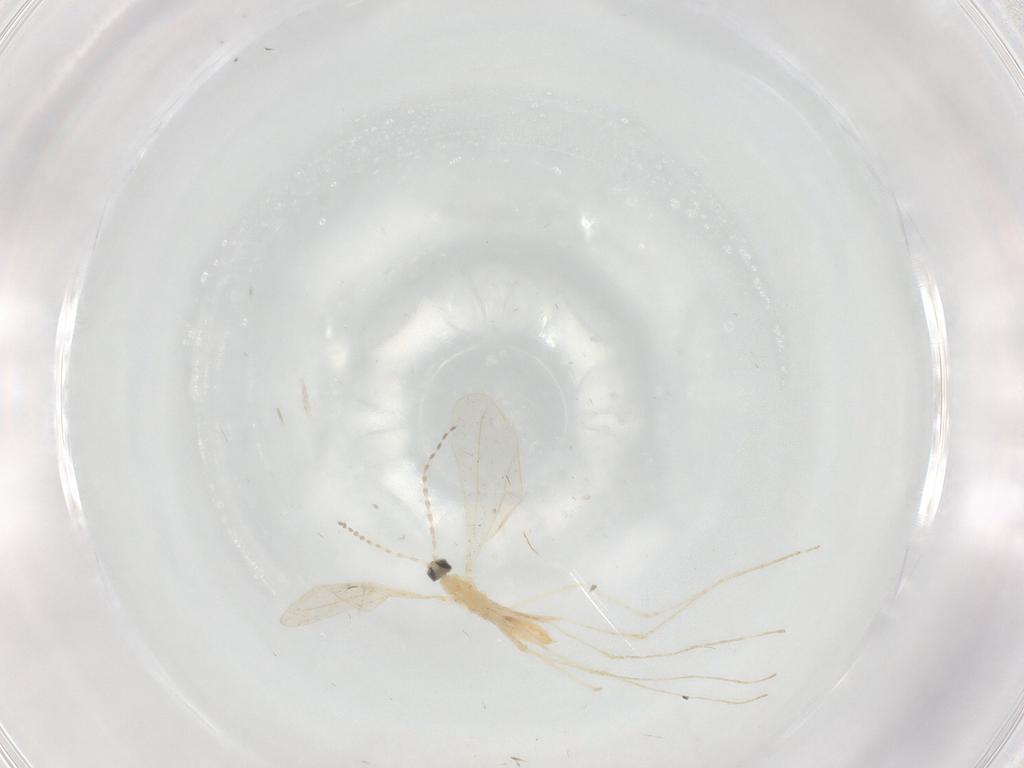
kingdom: Animalia
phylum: Arthropoda
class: Insecta
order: Diptera
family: Cecidomyiidae
